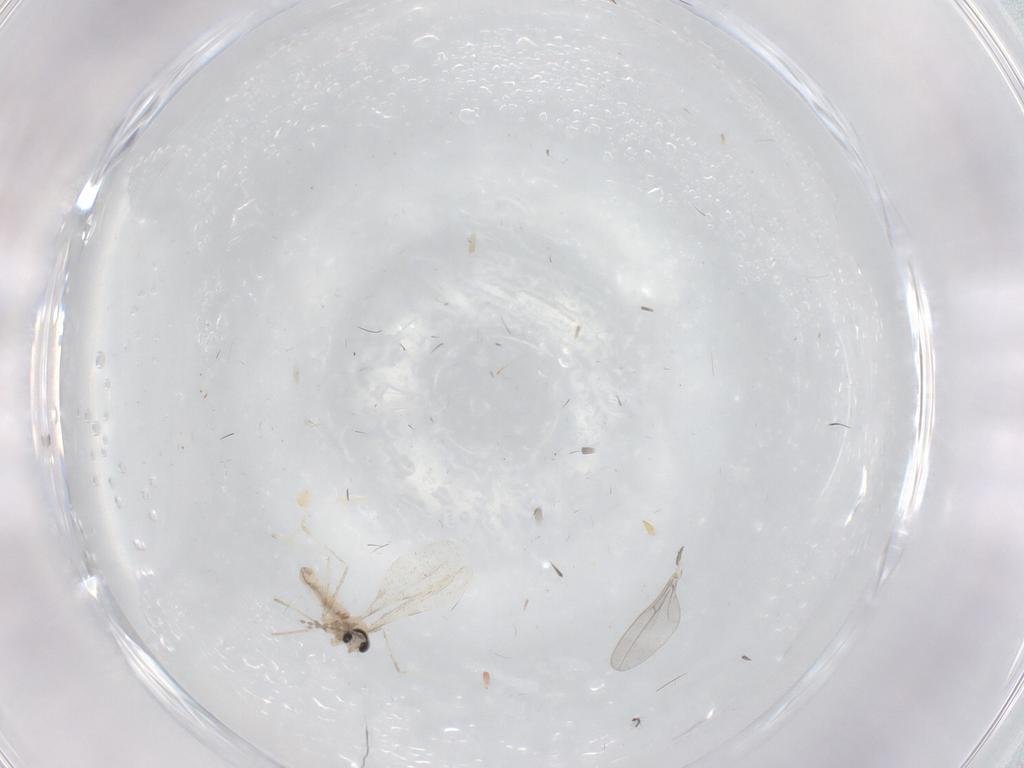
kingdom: Animalia
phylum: Arthropoda
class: Insecta
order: Diptera
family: Cecidomyiidae
